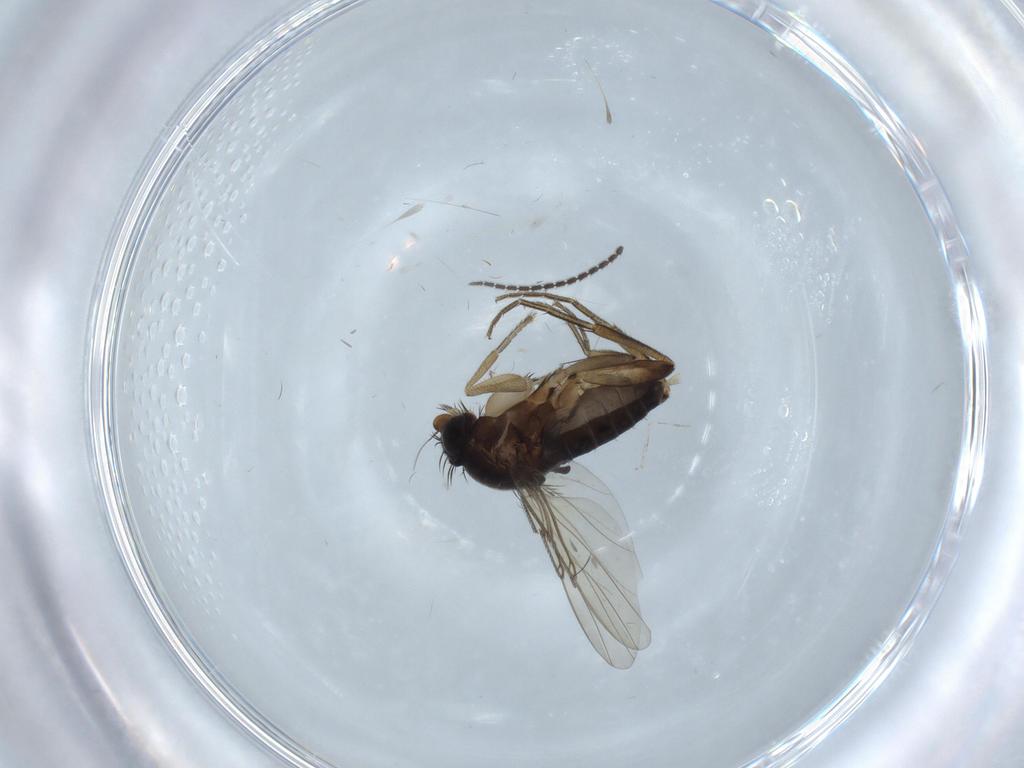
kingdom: Animalia
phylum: Arthropoda
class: Insecta
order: Diptera
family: Phoridae
